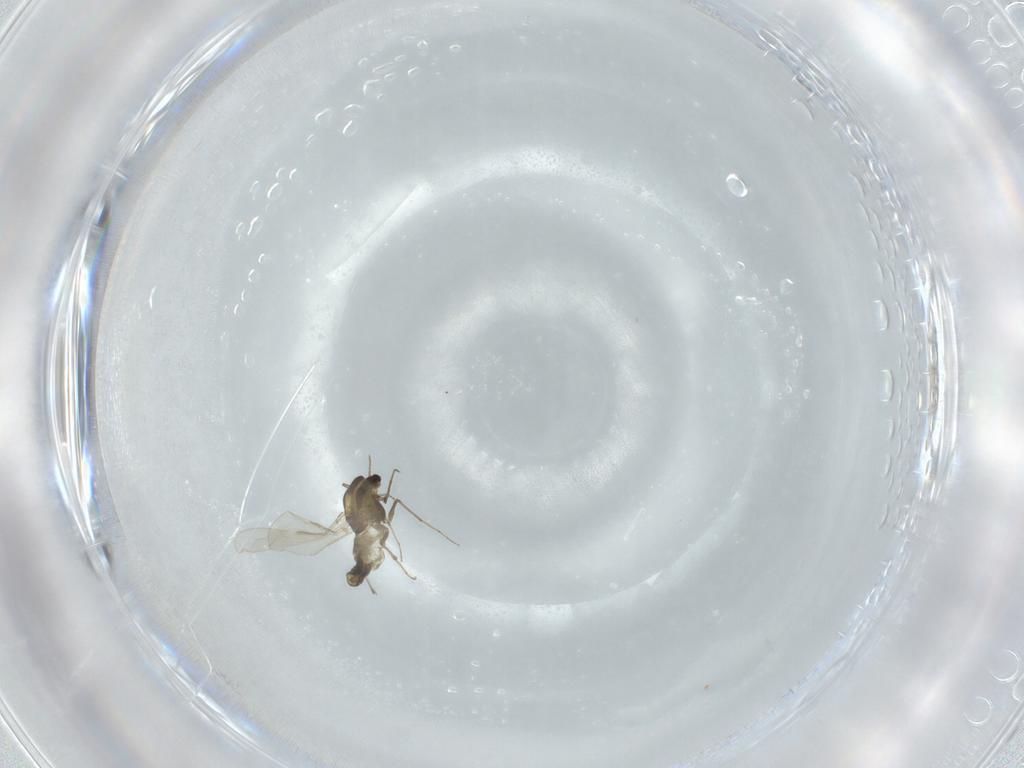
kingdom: Animalia
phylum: Arthropoda
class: Insecta
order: Diptera
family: Chironomidae
